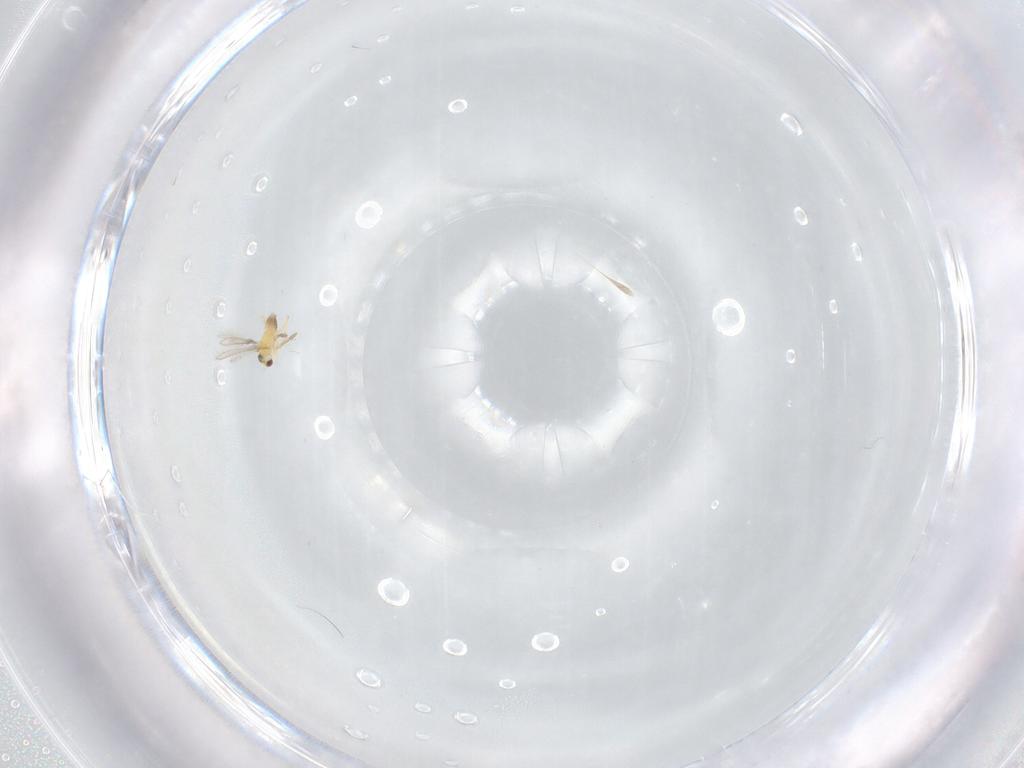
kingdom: Animalia
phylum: Arthropoda
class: Insecta
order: Hymenoptera
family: Mymaridae
